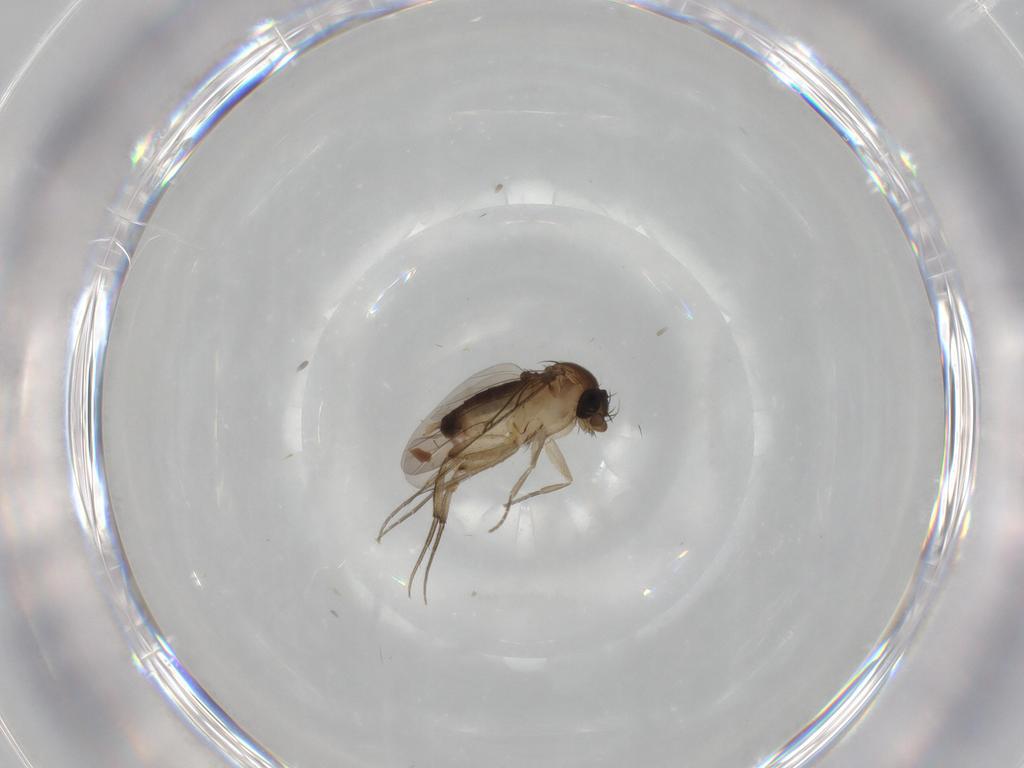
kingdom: Animalia
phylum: Arthropoda
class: Insecta
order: Diptera
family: Phoridae
